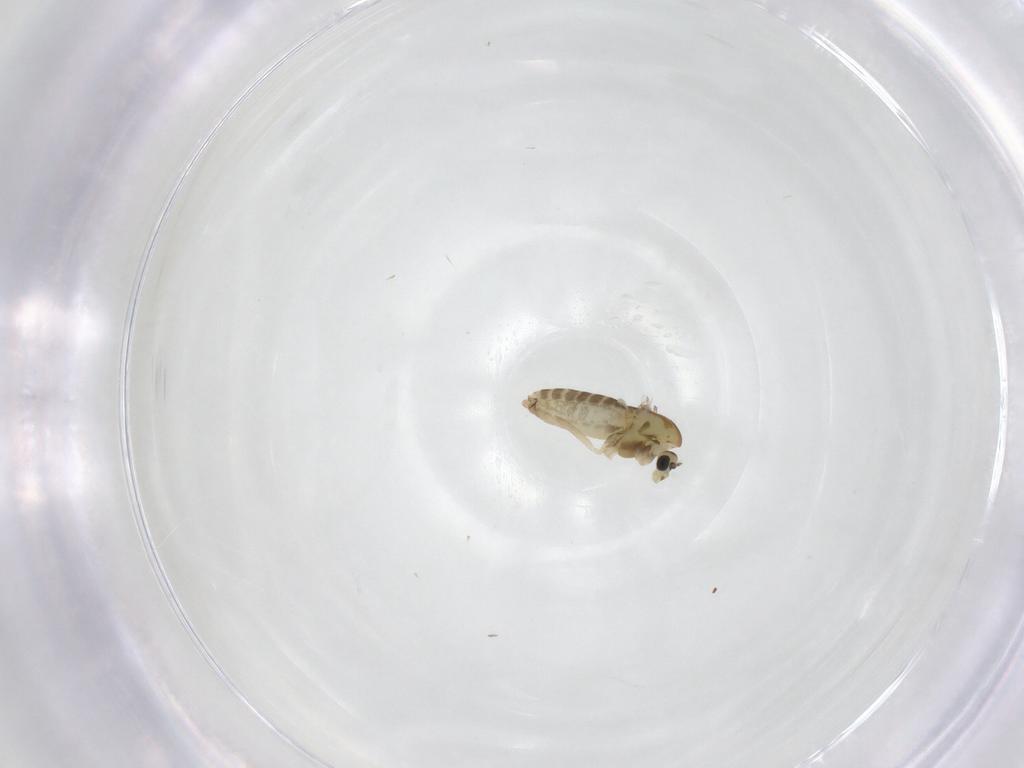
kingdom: Animalia
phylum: Arthropoda
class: Insecta
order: Diptera
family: Chironomidae
